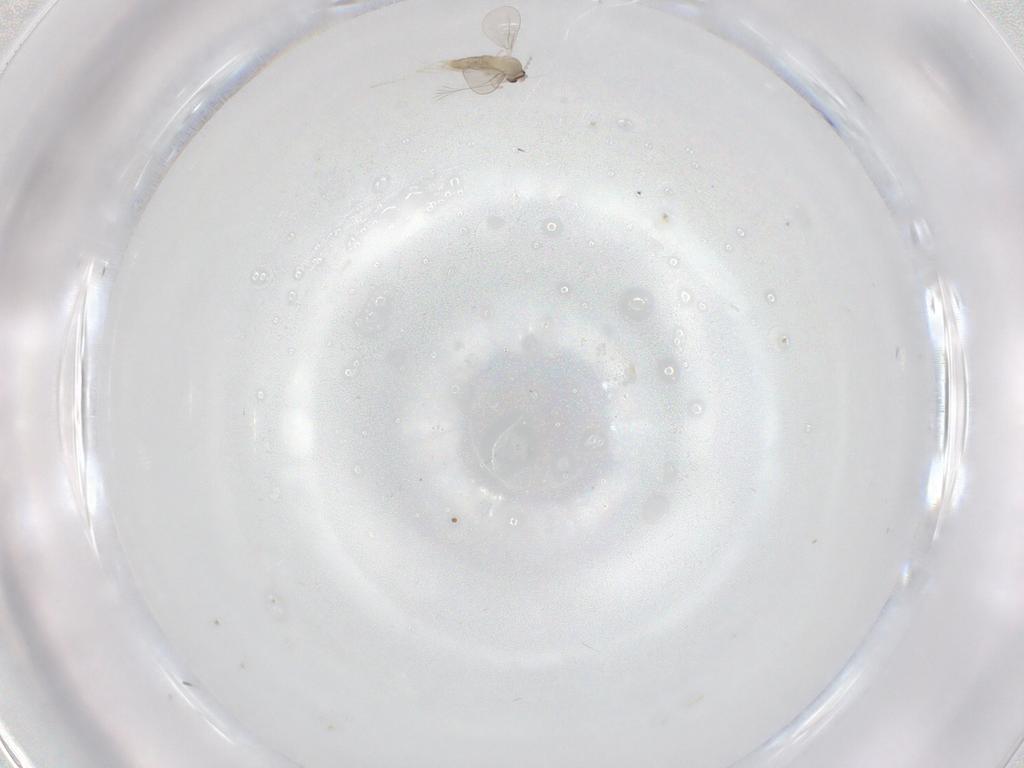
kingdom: Animalia
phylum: Arthropoda
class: Insecta
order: Diptera
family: Cecidomyiidae
